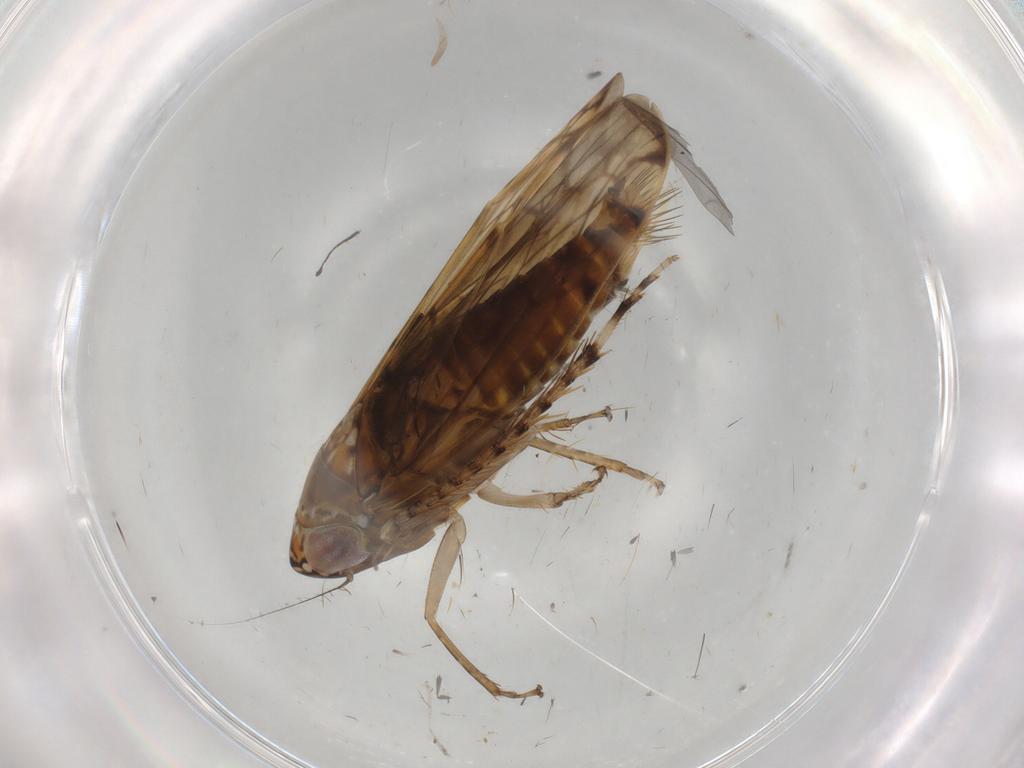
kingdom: Animalia
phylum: Arthropoda
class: Insecta
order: Hemiptera
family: Cicadellidae
